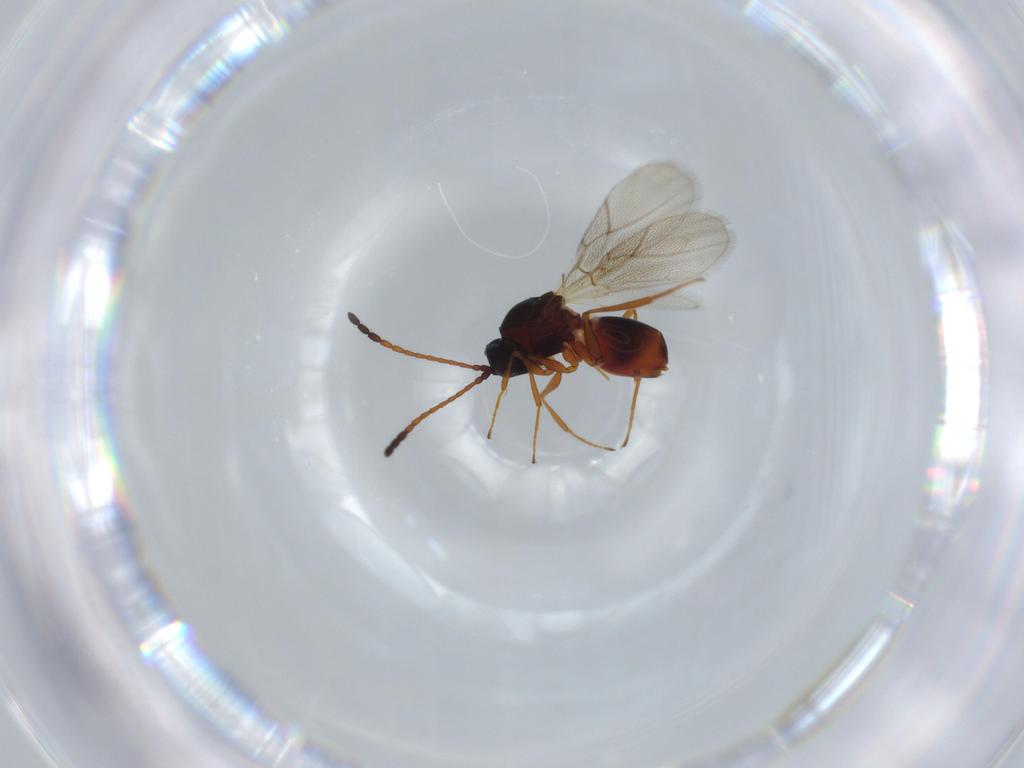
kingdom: Animalia
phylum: Arthropoda
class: Insecta
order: Hymenoptera
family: Figitidae
